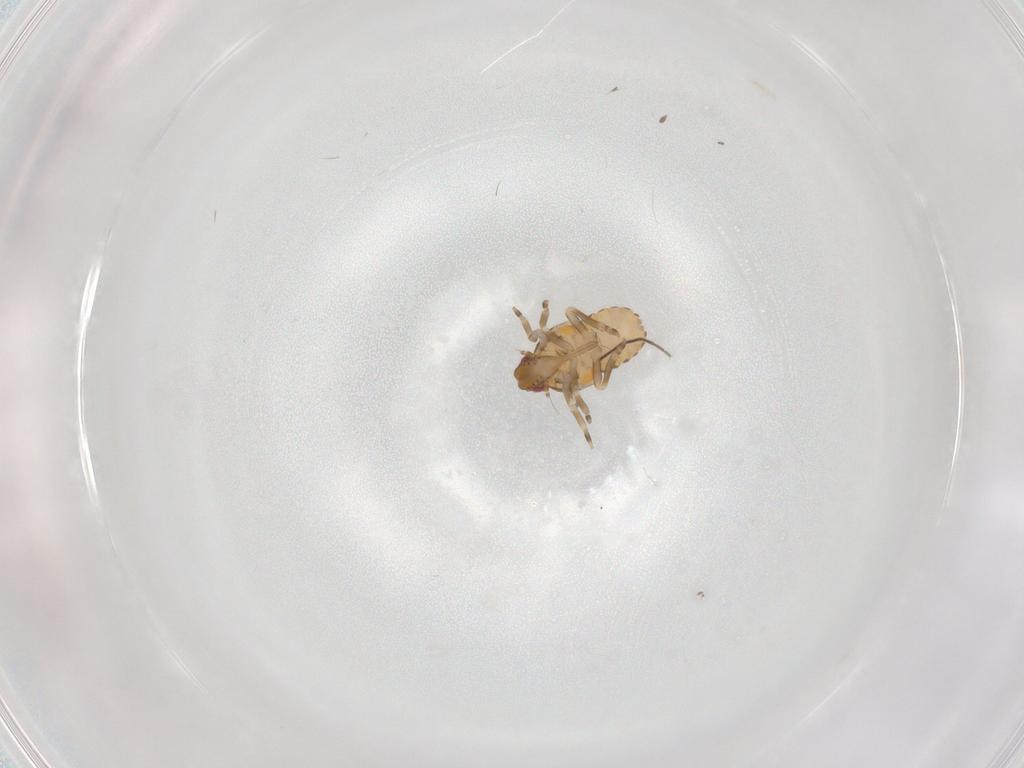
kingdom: Animalia
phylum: Arthropoda
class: Insecta
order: Hemiptera
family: Flatidae
